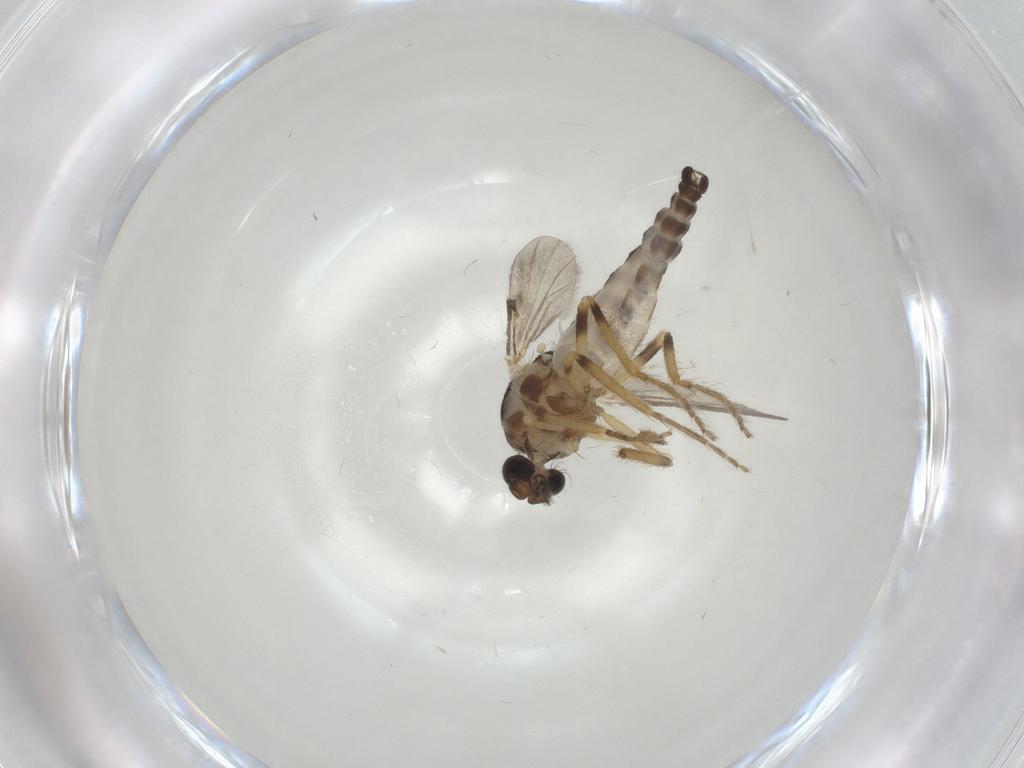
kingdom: Animalia
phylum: Arthropoda
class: Insecta
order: Diptera
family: Ceratopogonidae
